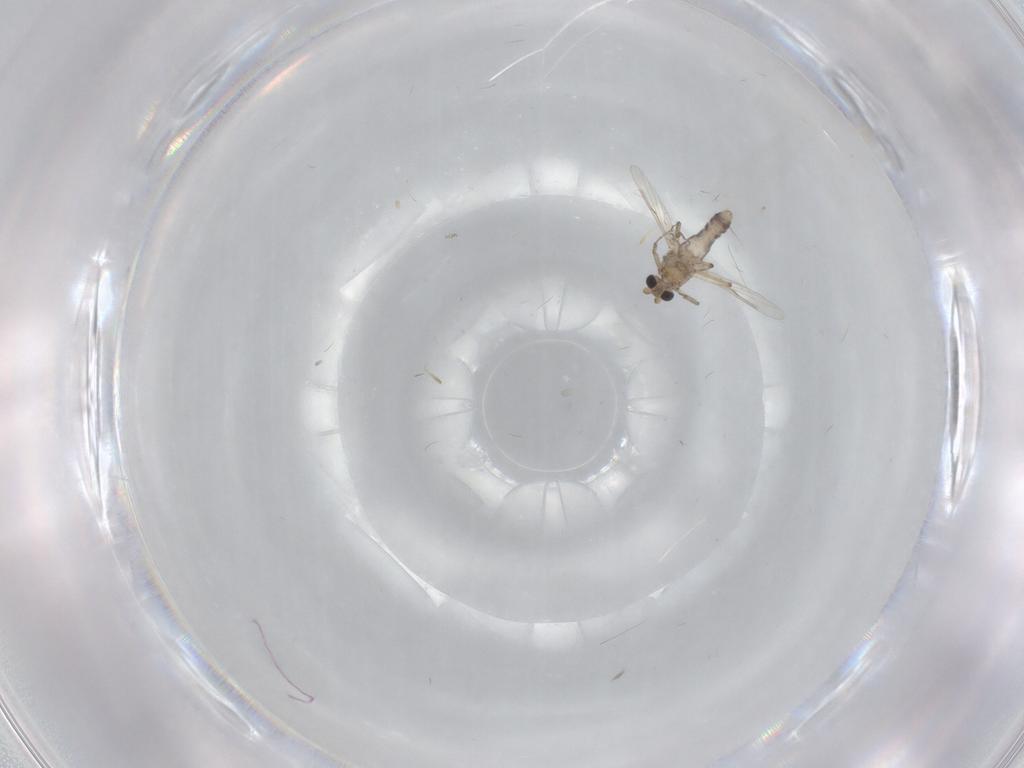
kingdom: Animalia
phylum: Arthropoda
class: Insecta
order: Diptera
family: Ceratopogonidae
